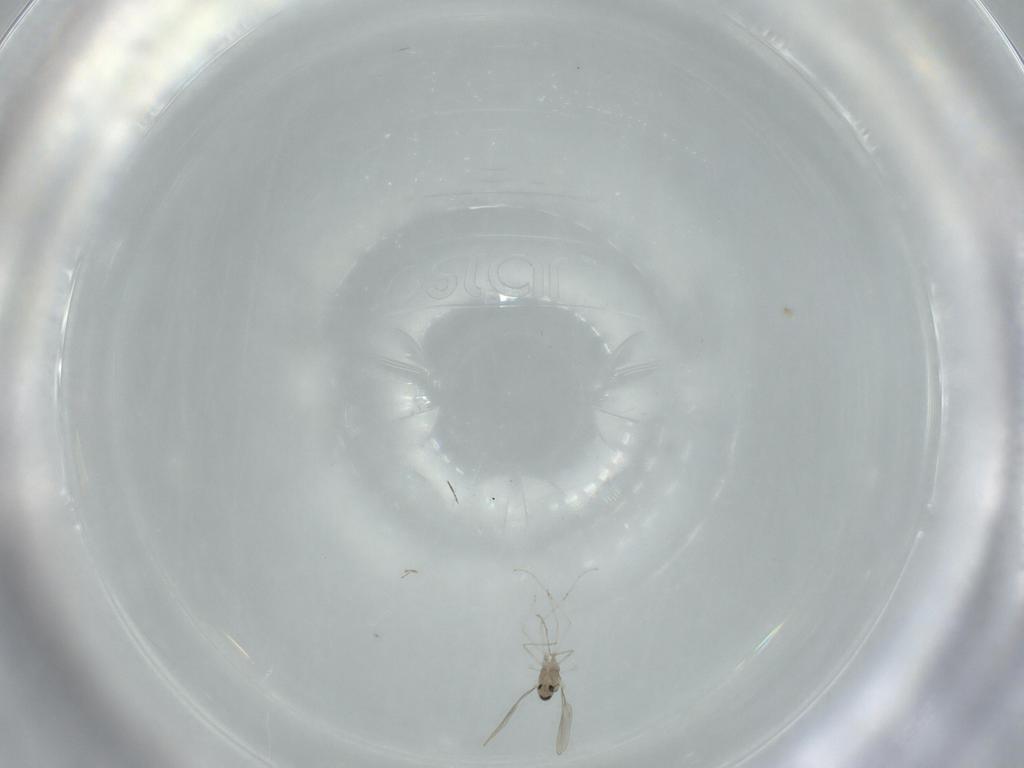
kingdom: Animalia
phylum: Arthropoda
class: Insecta
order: Diptera
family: Cecidomyiidae
